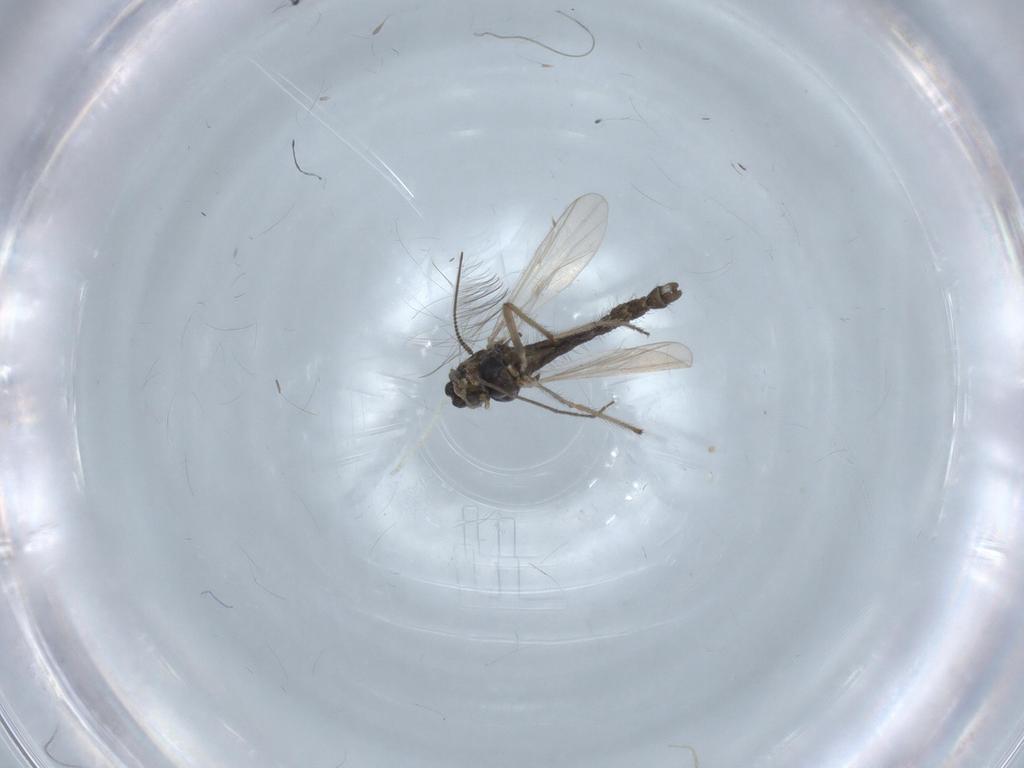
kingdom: Animalia
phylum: Arthropoda
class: Insecta
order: Diptera
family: Chironomidae
